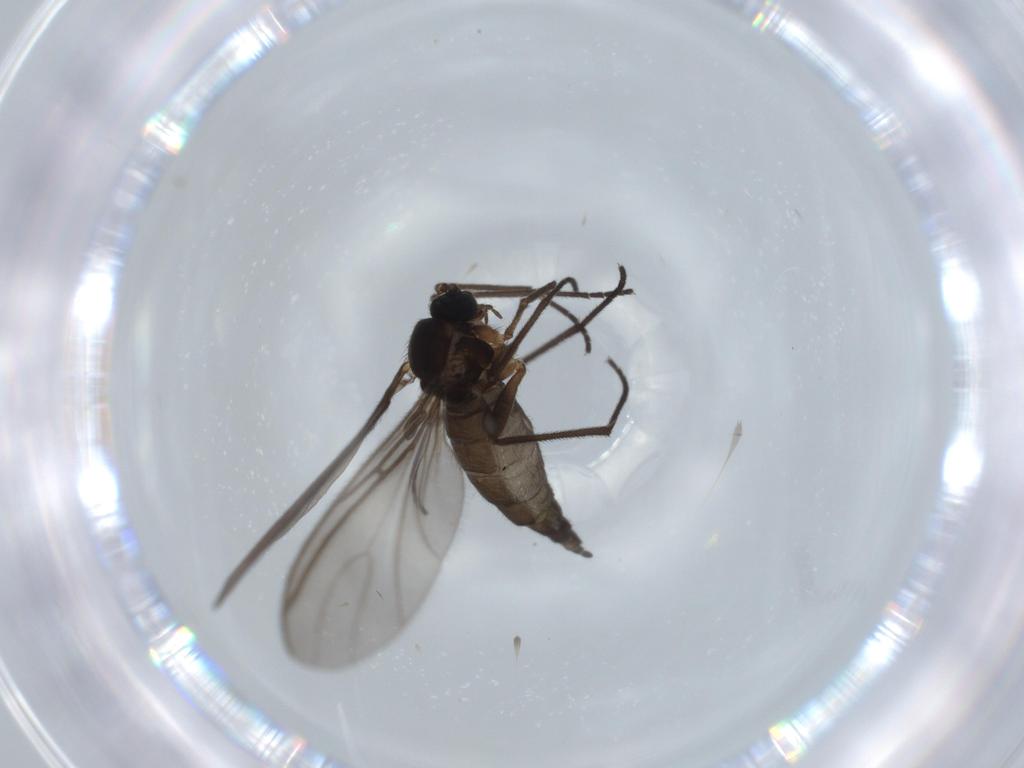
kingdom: Animalia
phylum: Arthropoda
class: Insecta
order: Diptera
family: Sciaridae
